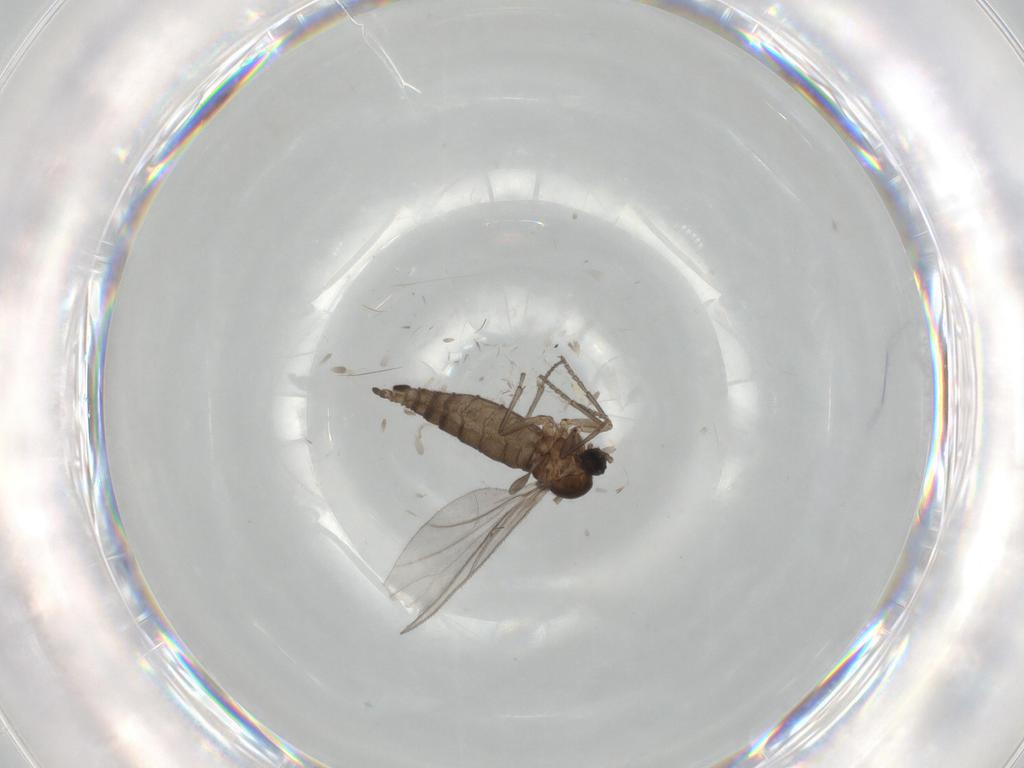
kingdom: Animalia
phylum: Arthropoda
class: Insecta
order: Diptera
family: Sciaridae
